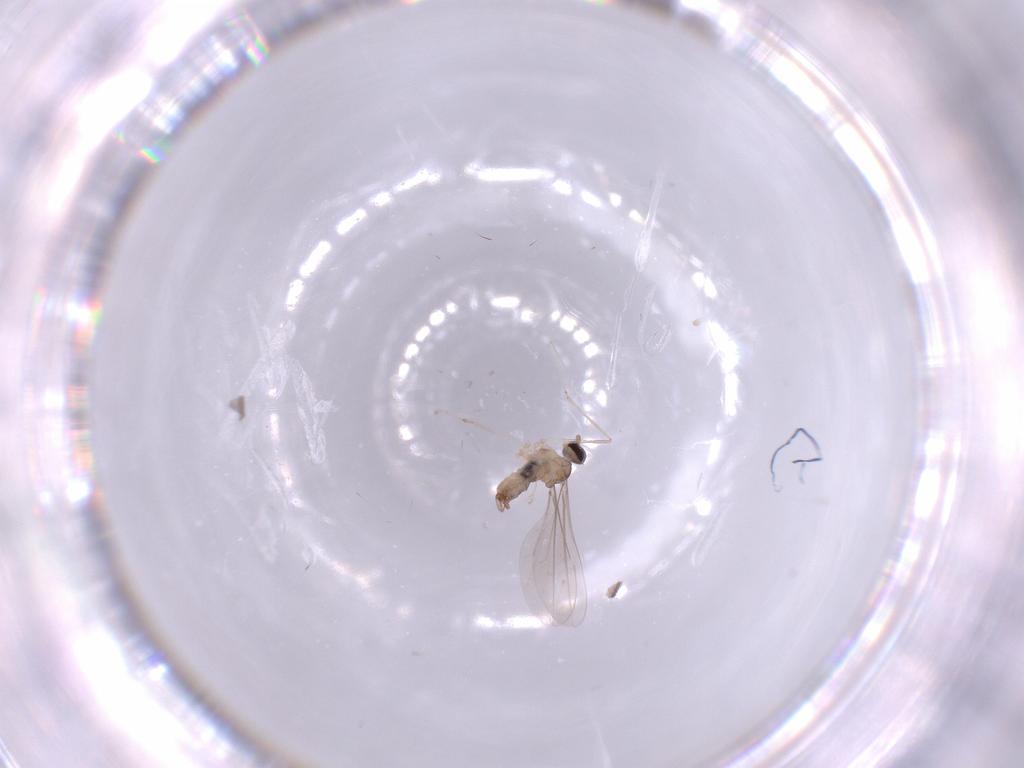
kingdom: Animalia
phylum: Arthropoda
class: Insecta
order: Diptera
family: Cecidomyiidae
